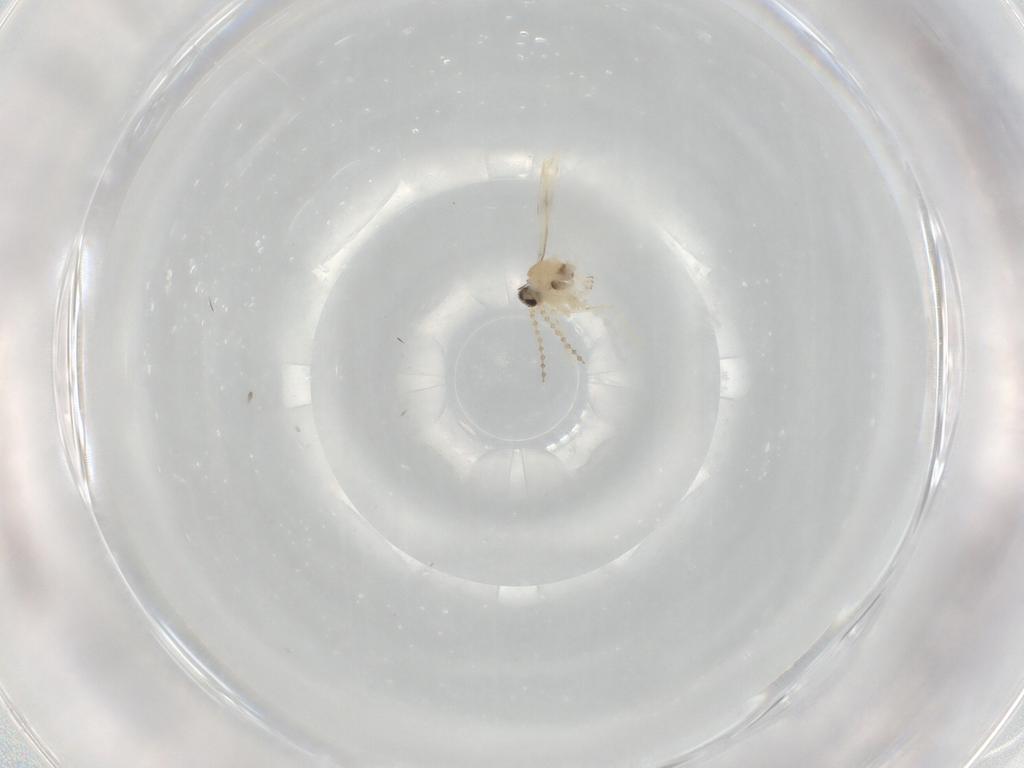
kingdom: Animalia
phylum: Arthropoda
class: Insecta
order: Diptera
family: Cecidomyiidae
